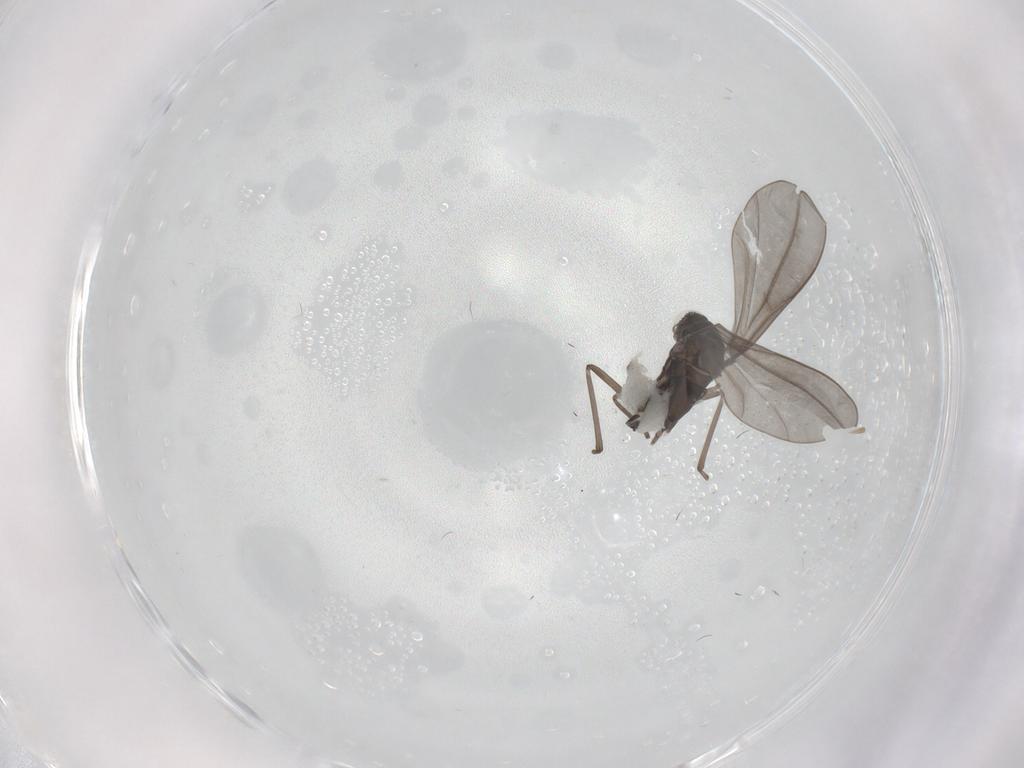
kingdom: Animalia
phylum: Arthropoda
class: Insecta
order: Diptera
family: Cecidomyiidae
